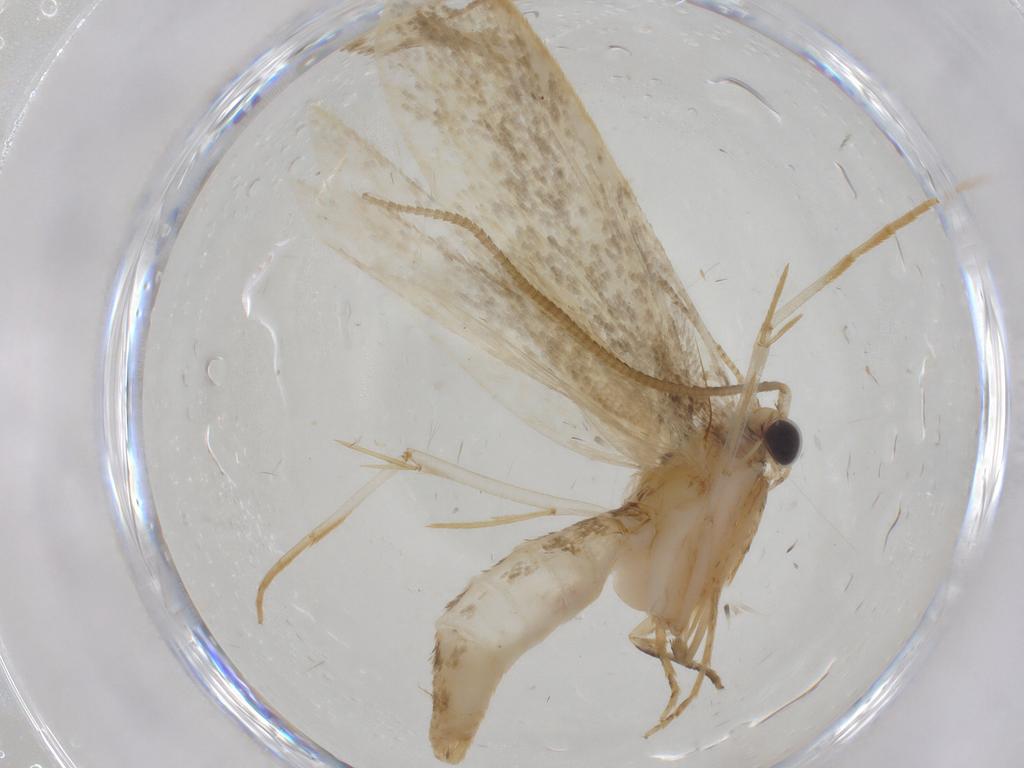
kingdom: Animalia
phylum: Arthropoda
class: Insecta
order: Lepidoptera
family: Tineidae
